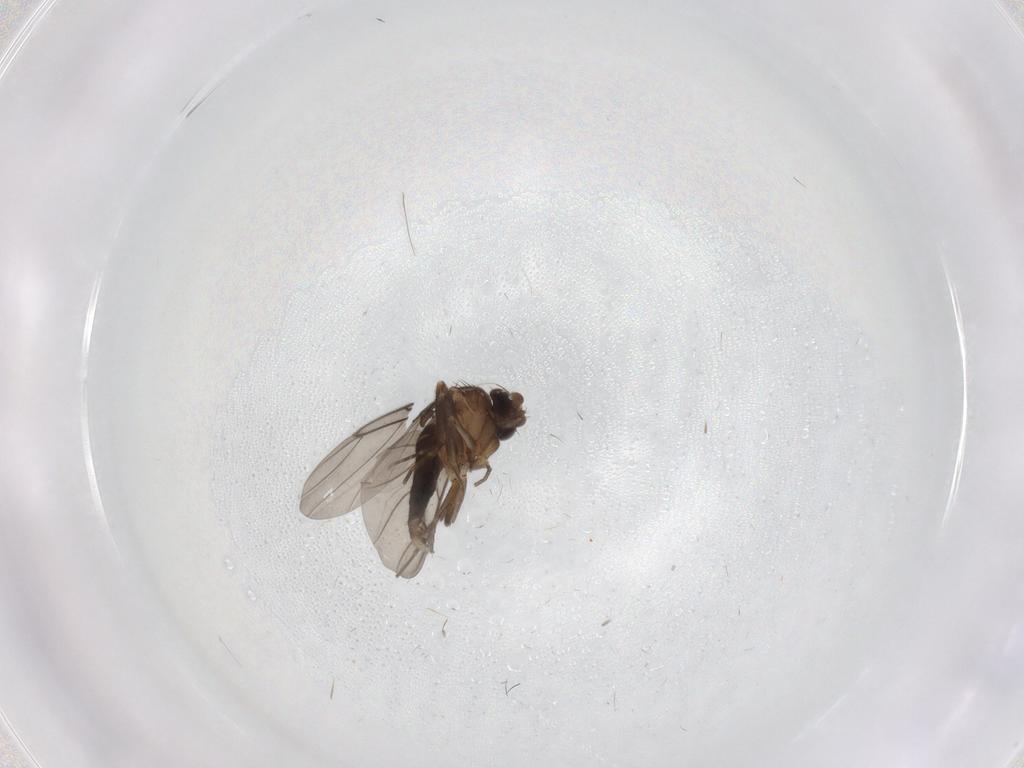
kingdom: Animalia
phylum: Arthropoda
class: Insecta
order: Diptera
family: Phoridae
